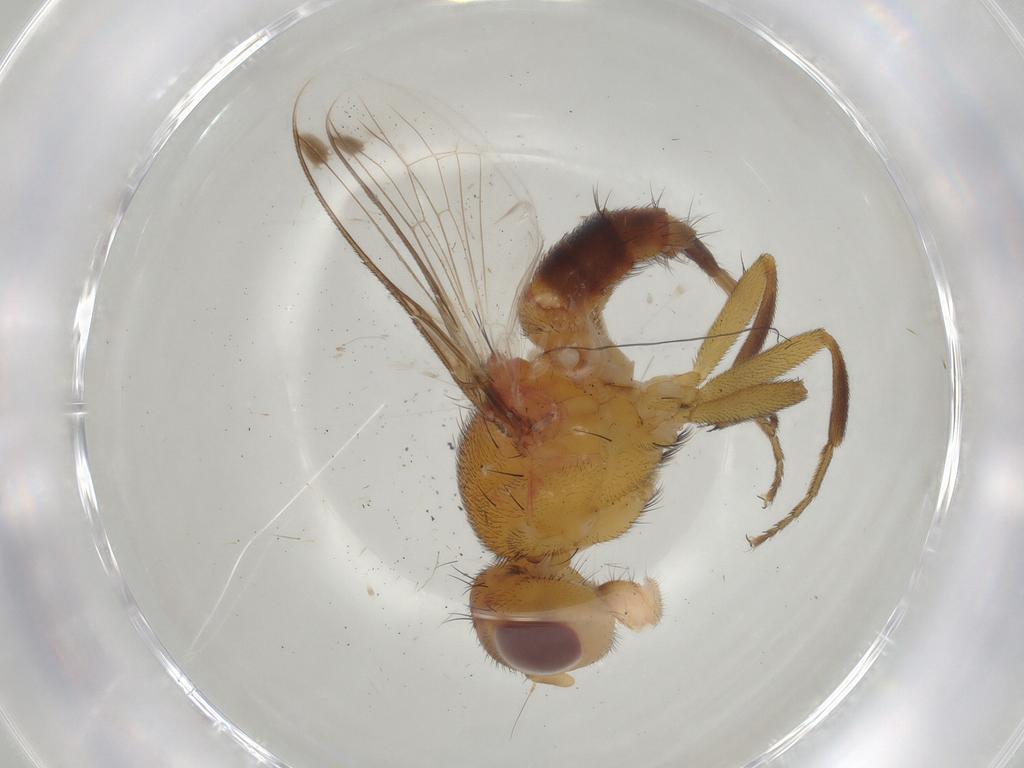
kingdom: Animalia
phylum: Arthropoda
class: Insecta
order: Diptera
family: Richardiidae
